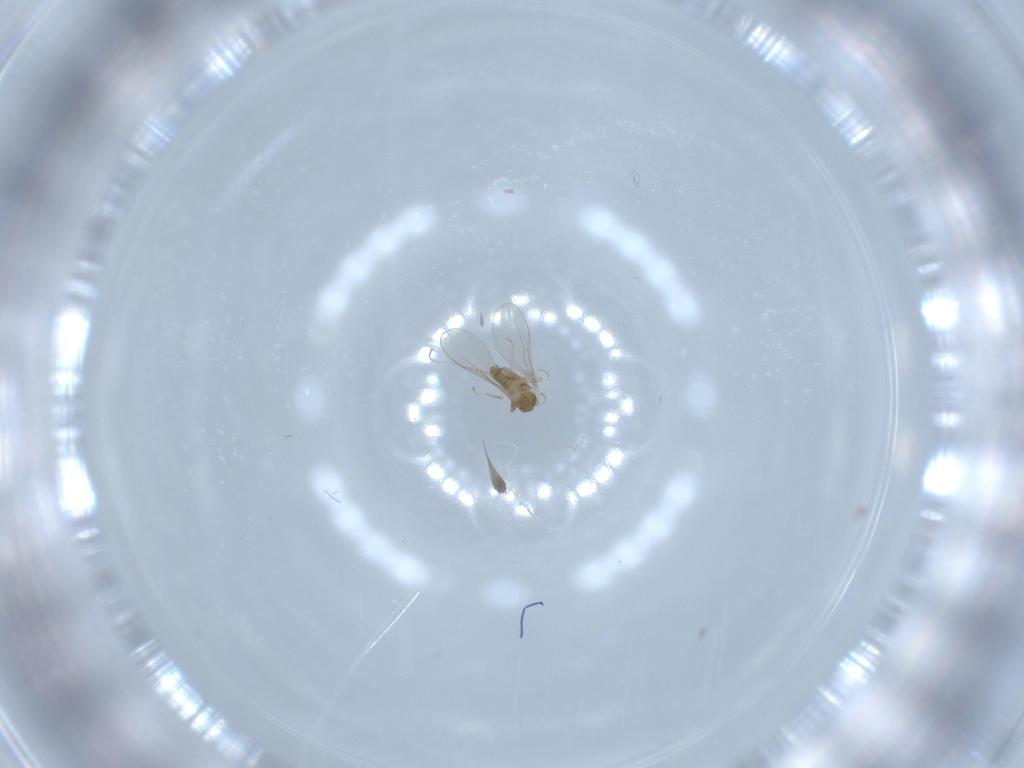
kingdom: Animalia
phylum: Arthropoda
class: Insecta
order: Diptera
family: Cecidomyiidae
